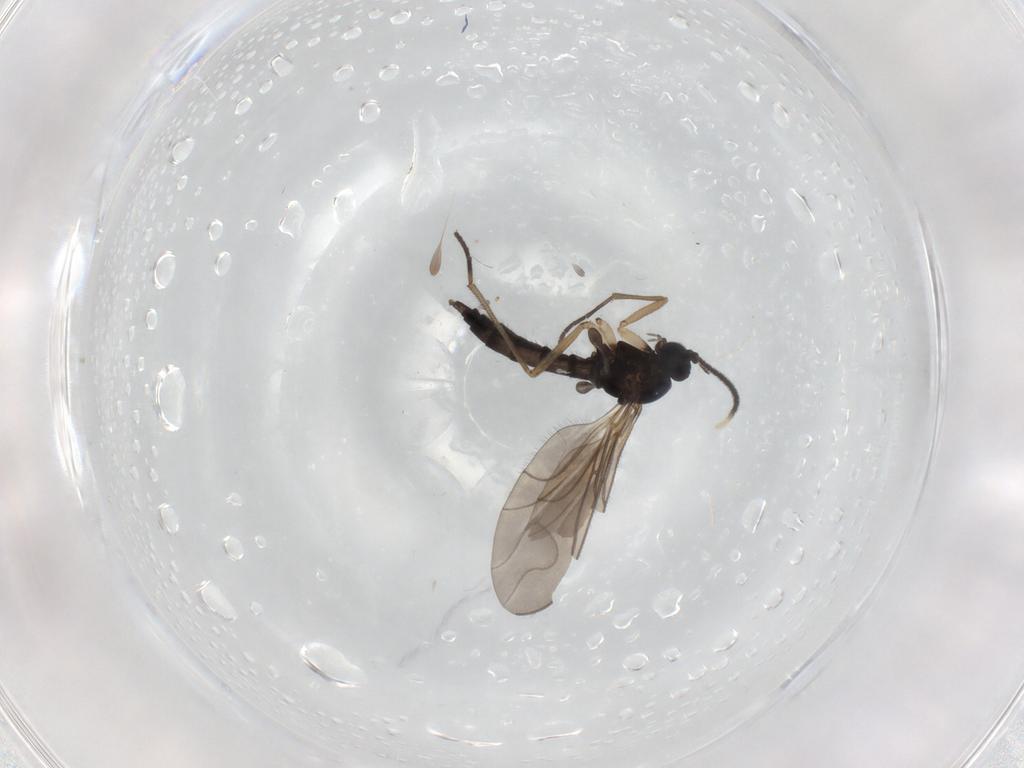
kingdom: Animalia
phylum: Arthropoda
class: Insecta
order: Diptera
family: Sciaridae
